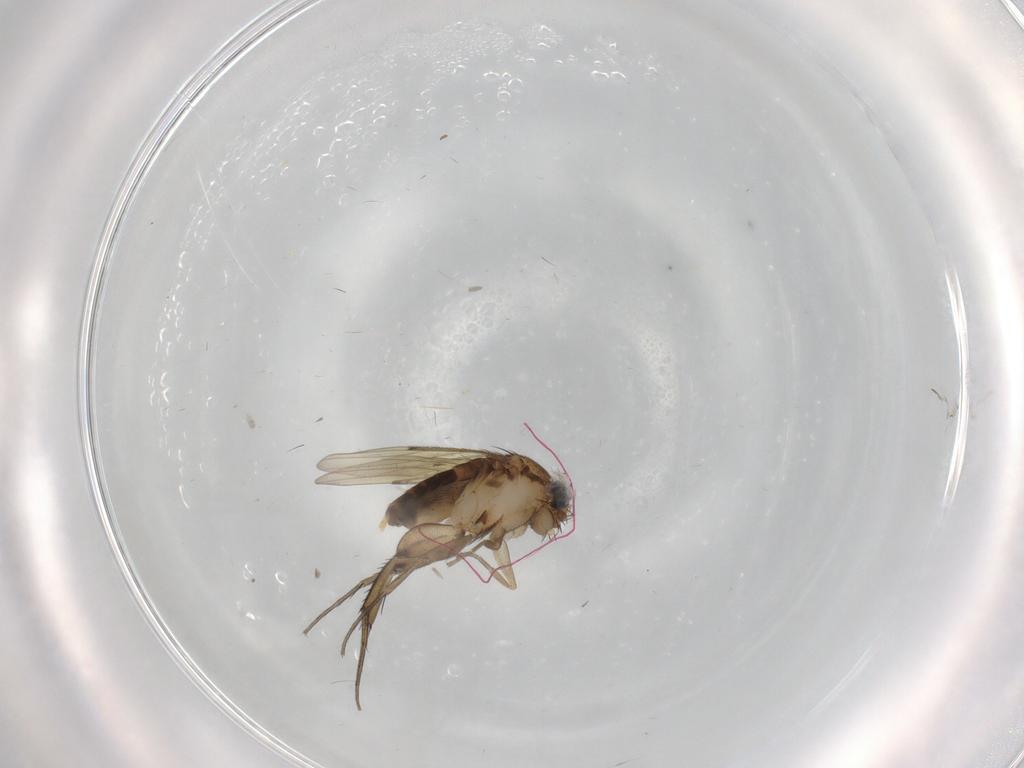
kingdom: Animalia
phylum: Arthropoda
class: Insecta
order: Diptera
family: Phoridae
